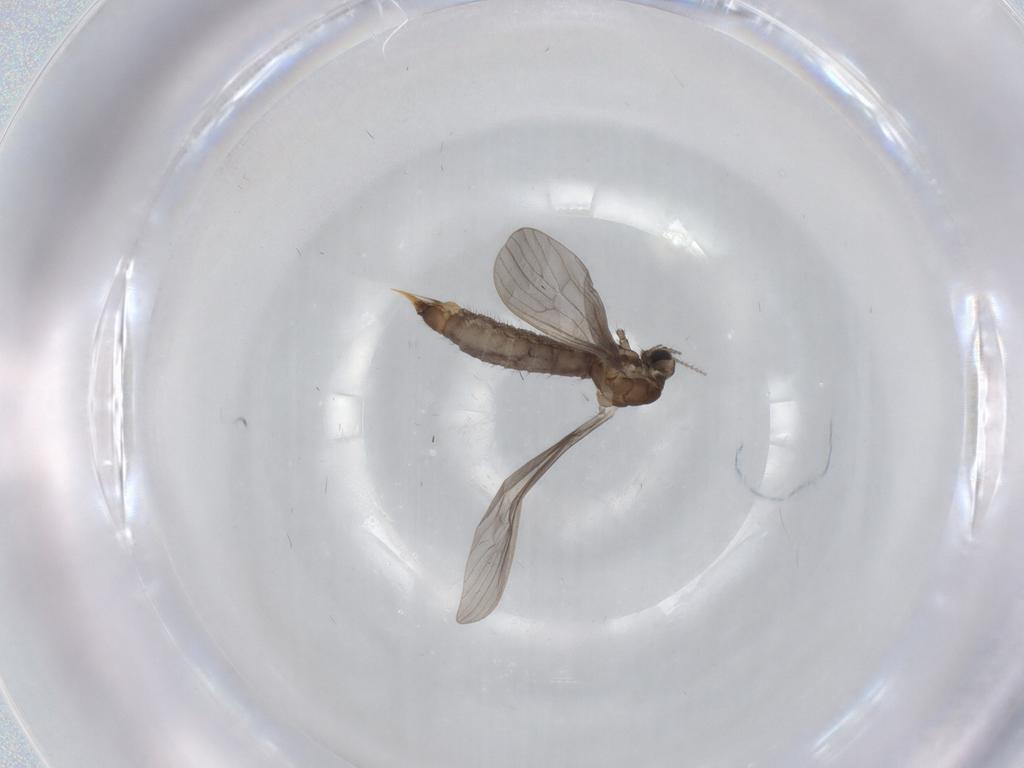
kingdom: Animalia
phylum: Arthropoda
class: Insecta
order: Diptera
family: Limoniidae
